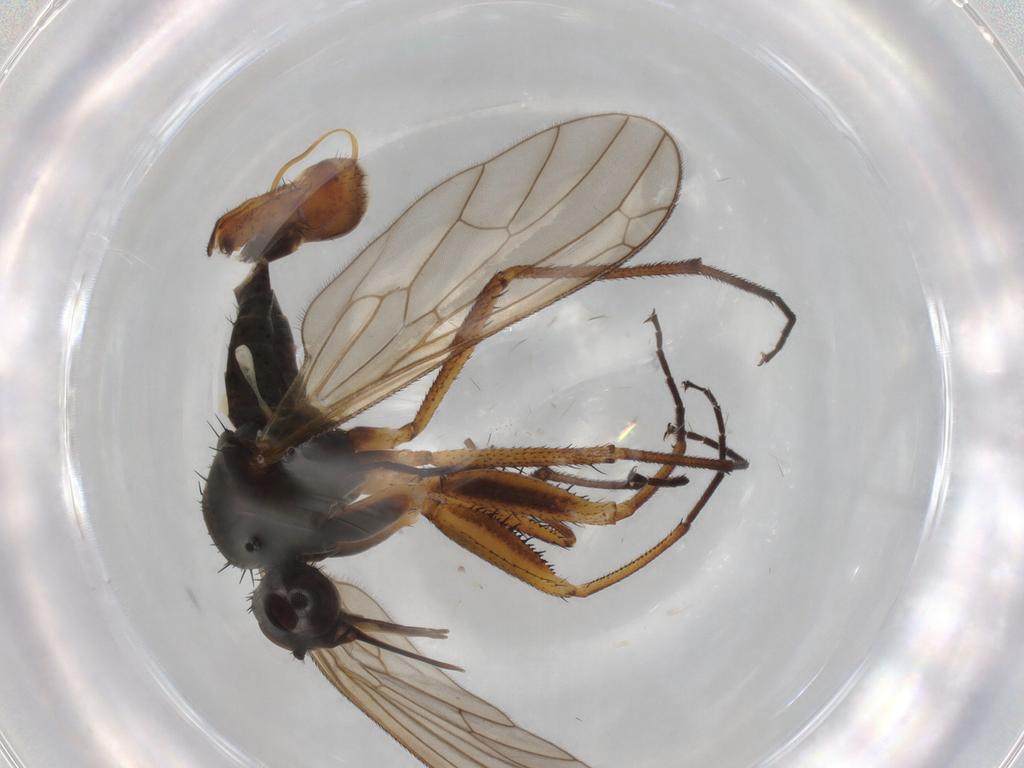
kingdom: Animalia
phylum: Arthropoda
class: Insecta
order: Diptera
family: Empididae
